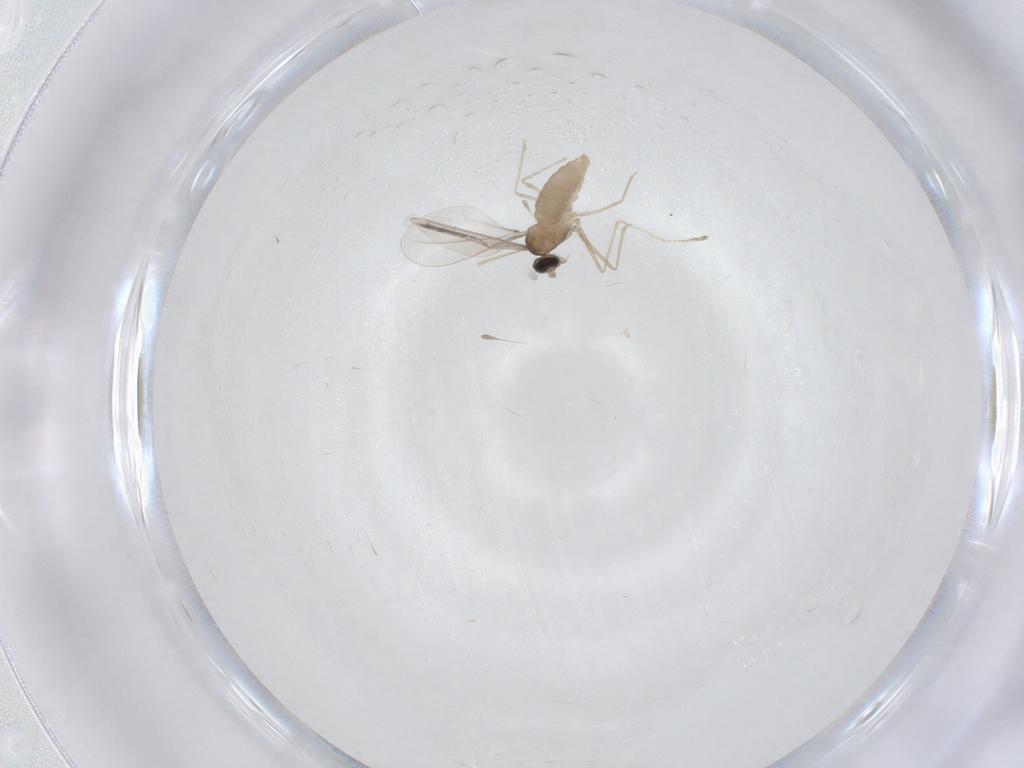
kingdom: Animalia
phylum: Arthropoda
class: Insecta
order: Diptera
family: Cecidomyiidae
